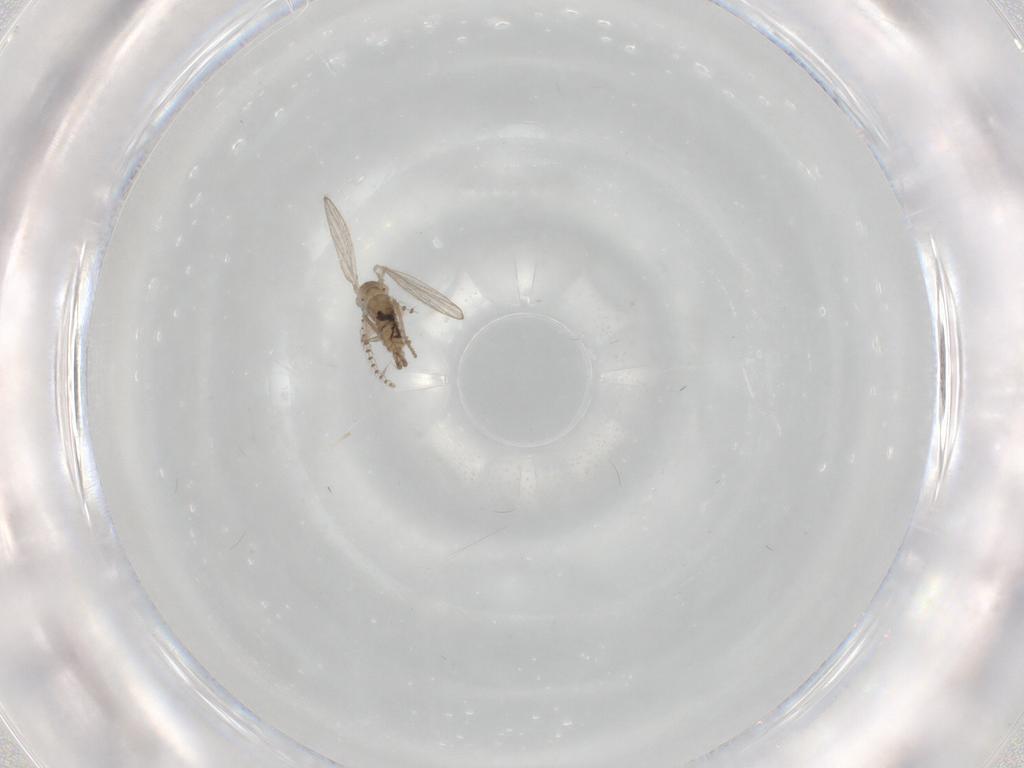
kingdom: Animalia
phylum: Arthropoda
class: Insecta
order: Diptera
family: Psychodidae
